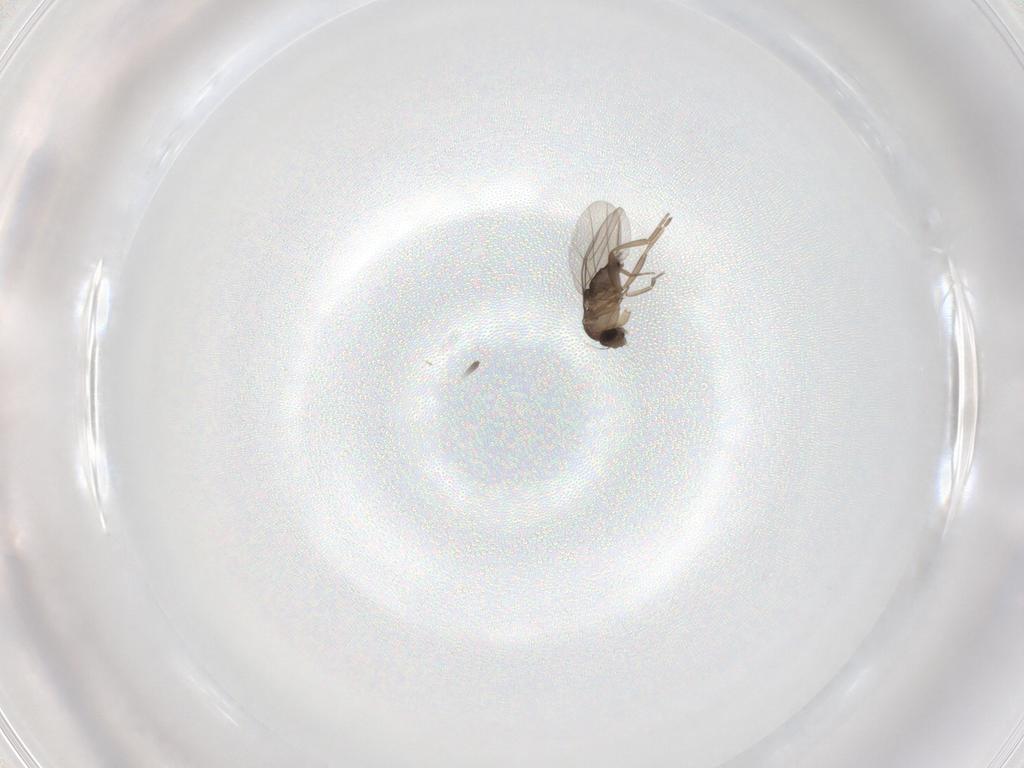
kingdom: Animalia
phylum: Arthropoda
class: Insecta
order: Diptera
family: Phoridae
